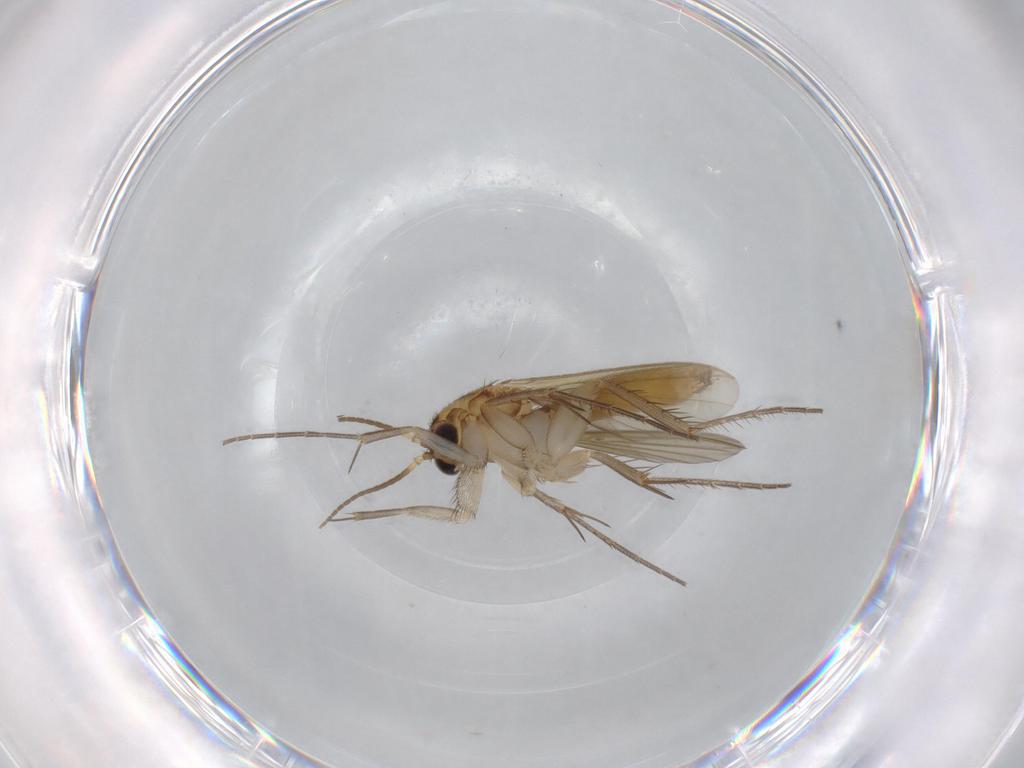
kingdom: Animalia
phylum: Arthropoda
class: Insecta
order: Diptera
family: Mycetophilidae
